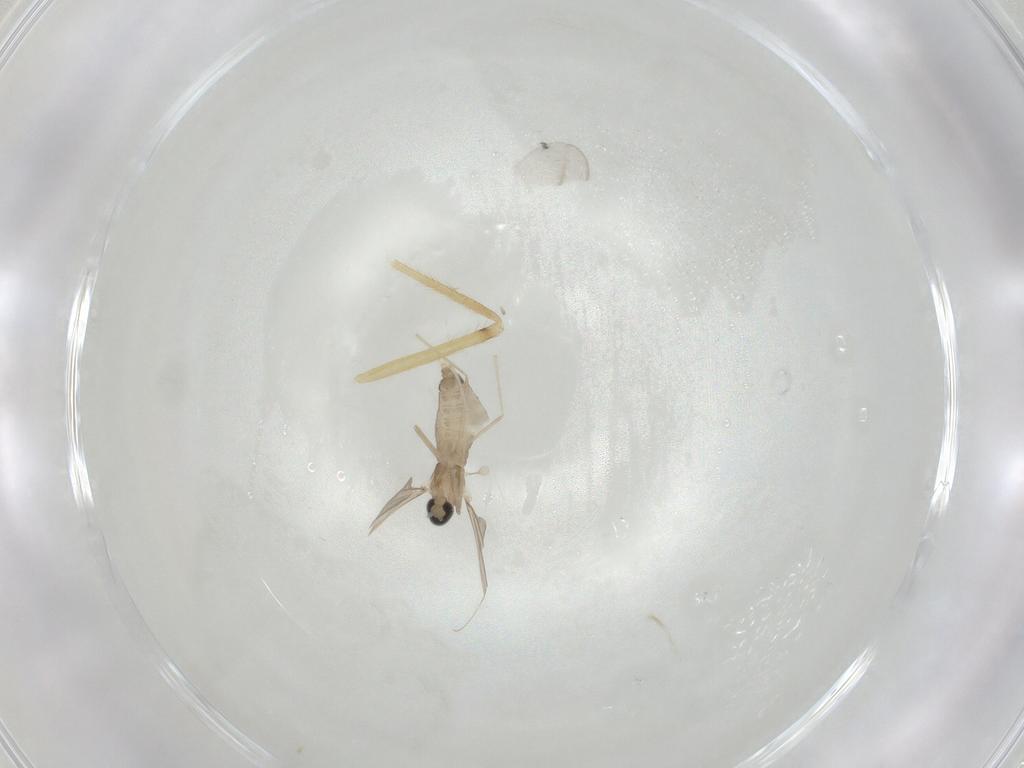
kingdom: Animalia
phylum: Arthropoda
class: Insecta
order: Diptera
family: Cecidomyiidae
